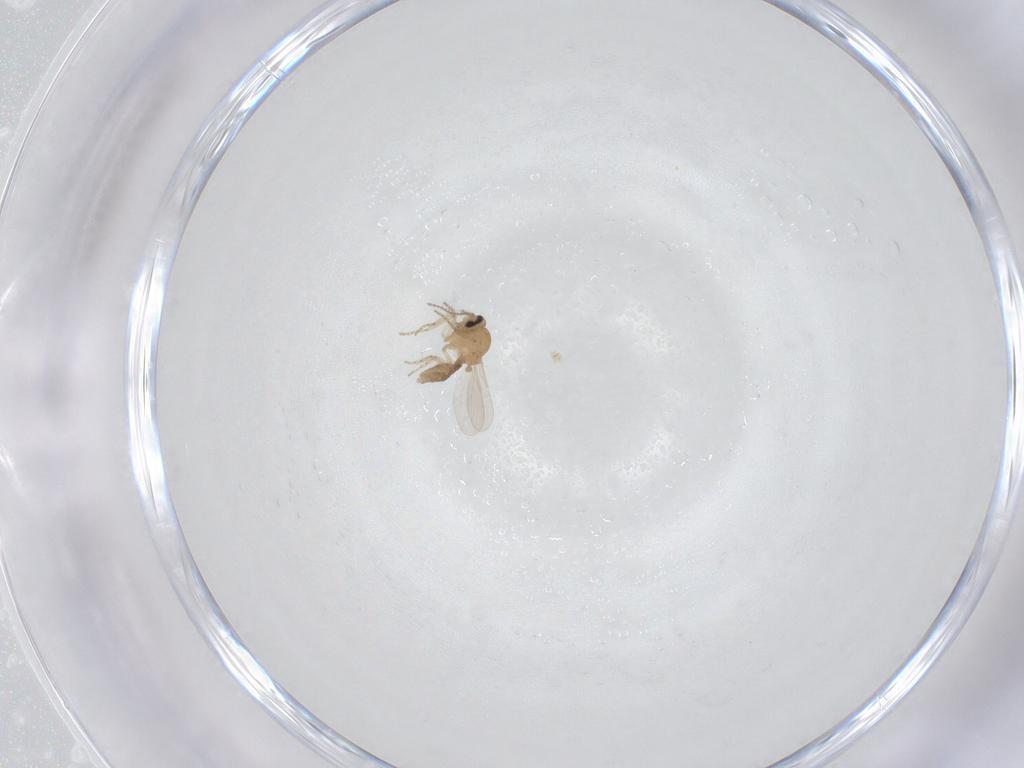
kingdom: Animalia
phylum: Arthropoda
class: Insecta
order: Diptera
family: Ceratopogonidae
